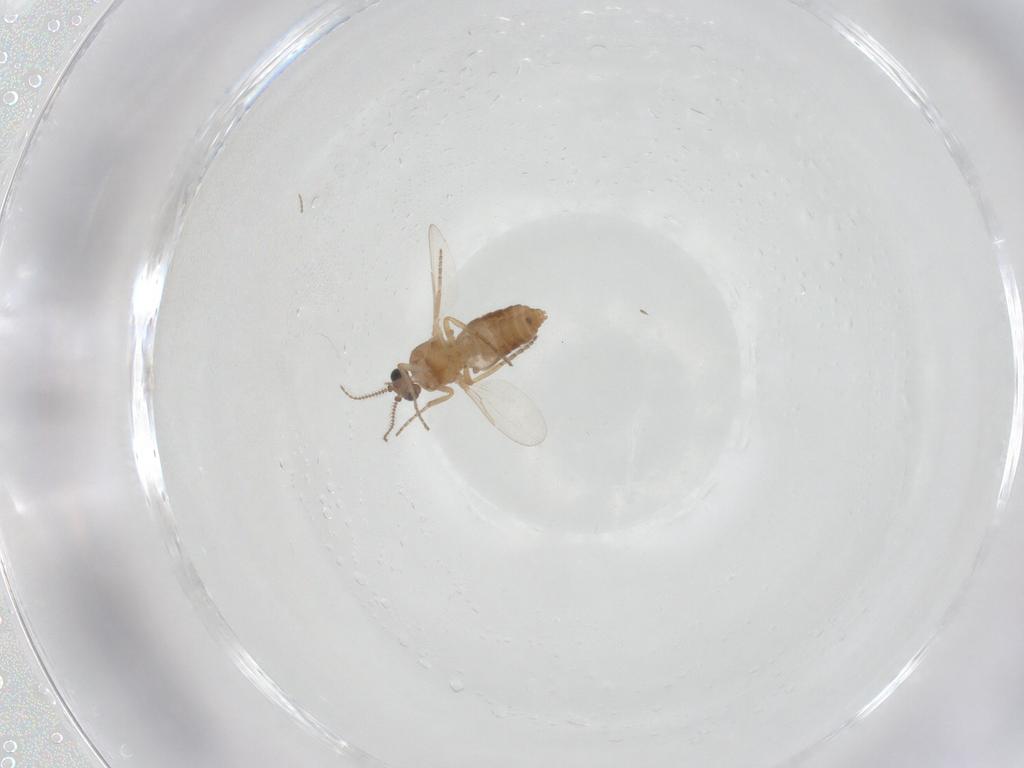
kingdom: Animalia
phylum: Arthropoda
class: Insecta
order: Diptera
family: Ceratopogonidae
